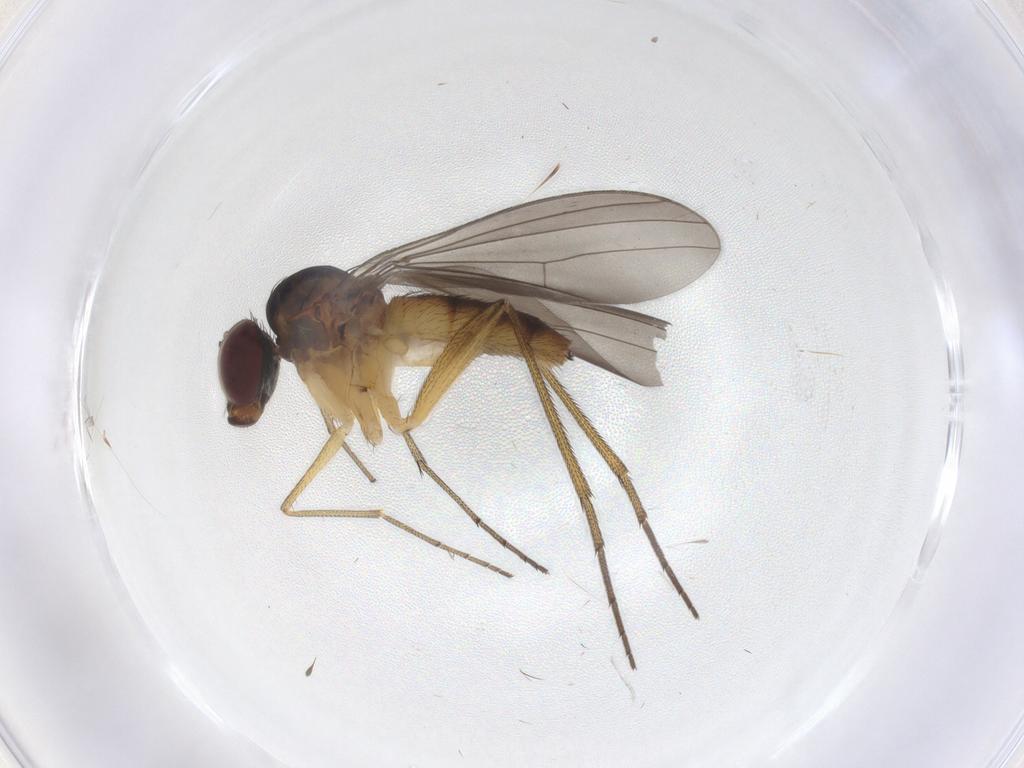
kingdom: Animalia
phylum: Arthropoda
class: Insecta
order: Diptera
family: Dolichopodidae
